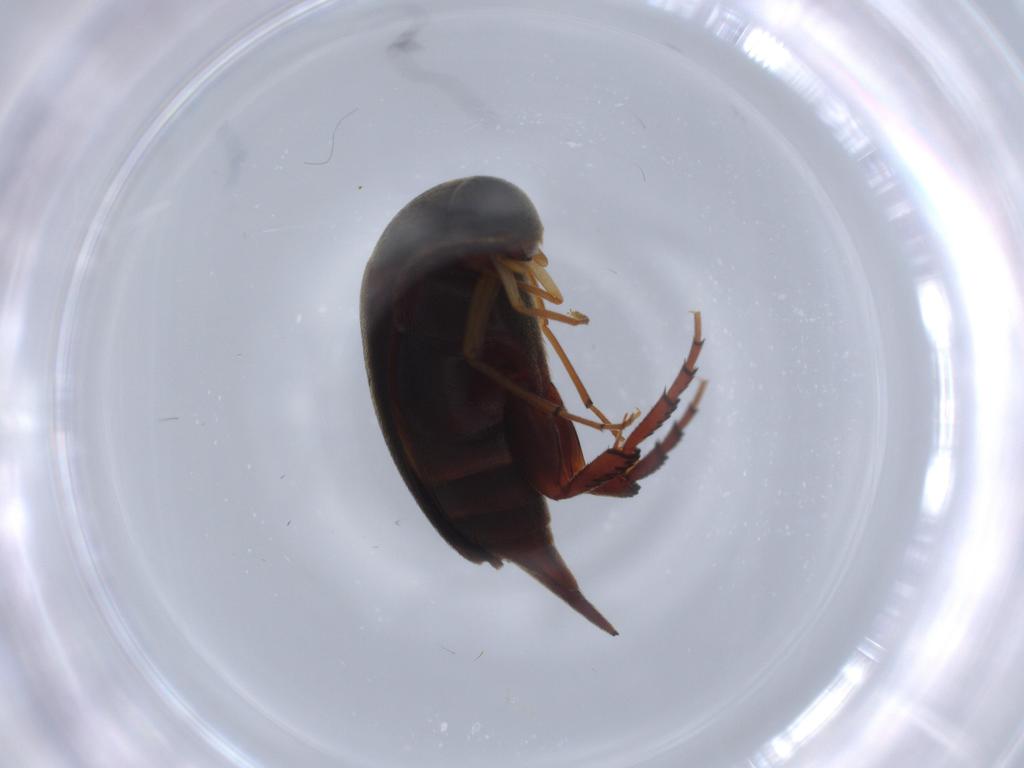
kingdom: Animalia
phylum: Arthropoda
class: Insecta
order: Coleoptera
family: Mordellidae
